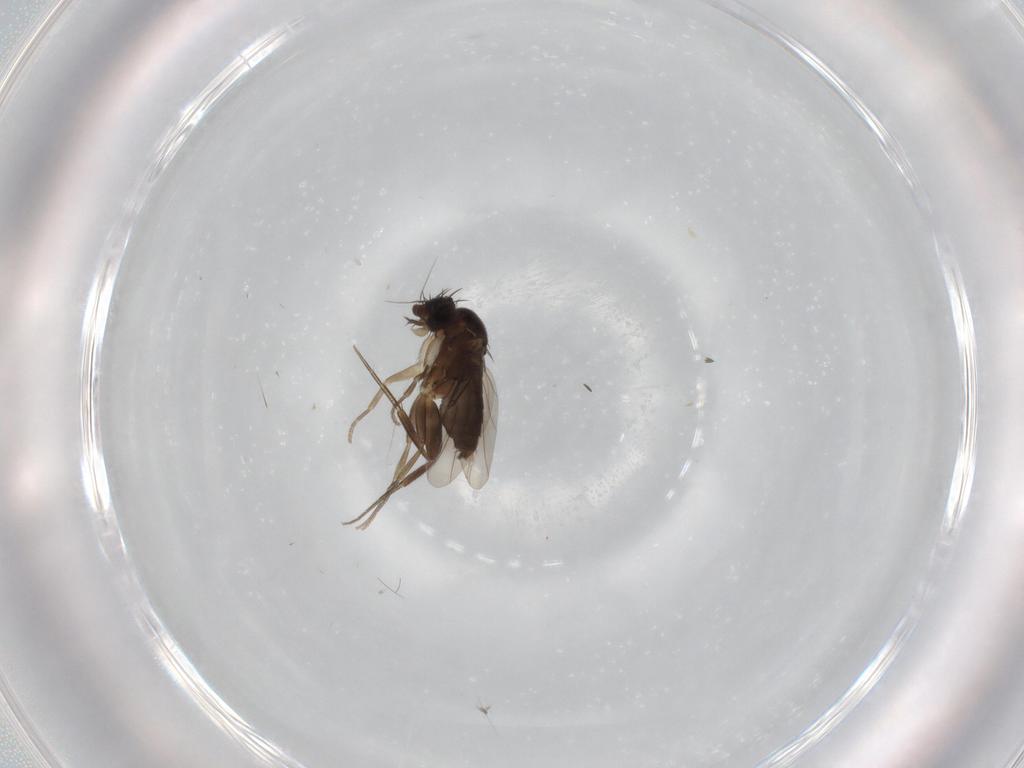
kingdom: Animalia
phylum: Arthropoda
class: Insecta
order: Diptera
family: Phoridae
